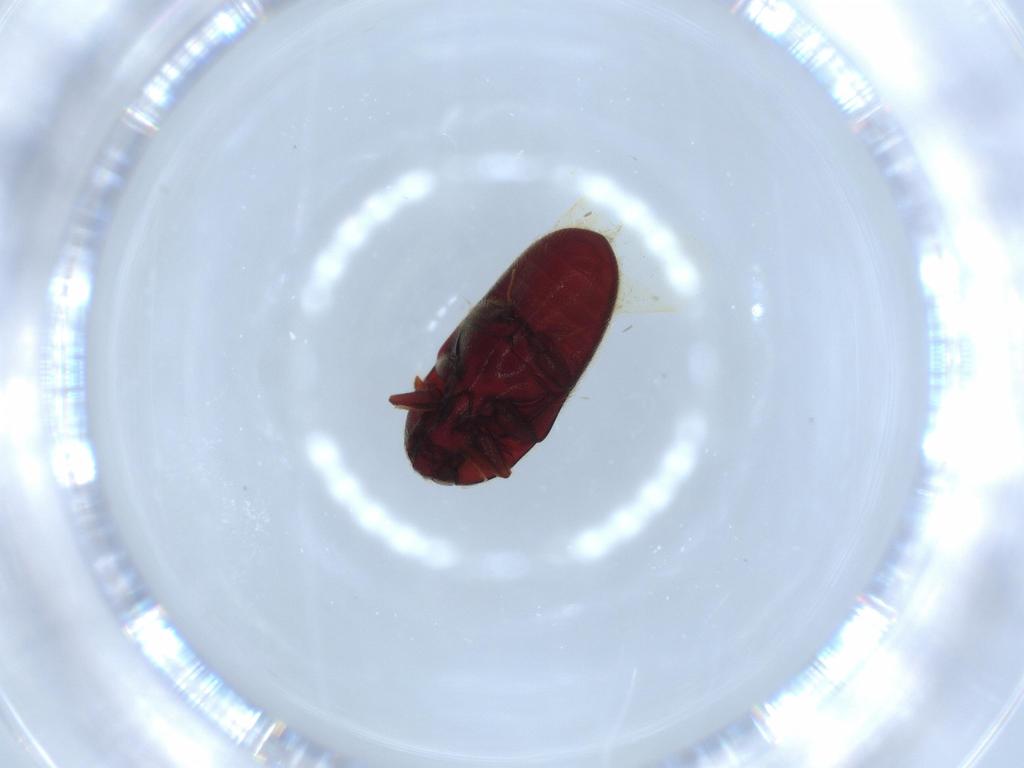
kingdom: Animalia
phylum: Arthropoda
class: Insecta
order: Coleoptera
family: Throscidae
